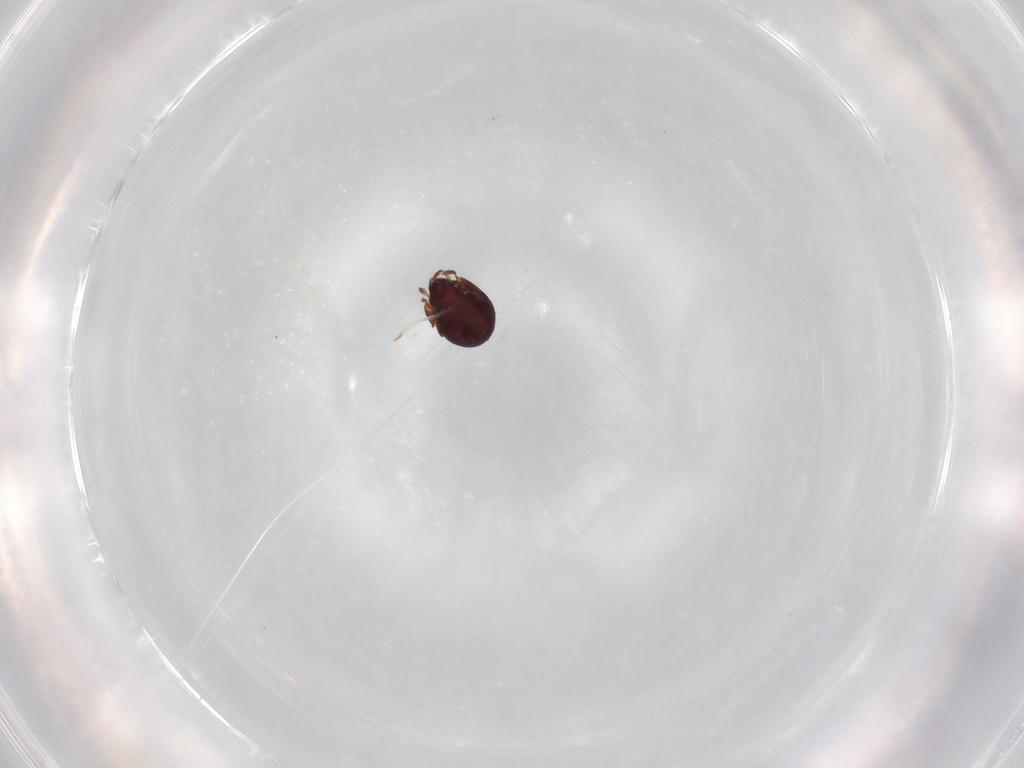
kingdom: Animalia
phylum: Arthropoda
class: Arachnida
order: Sarcoptiformes
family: Humerobatidae
